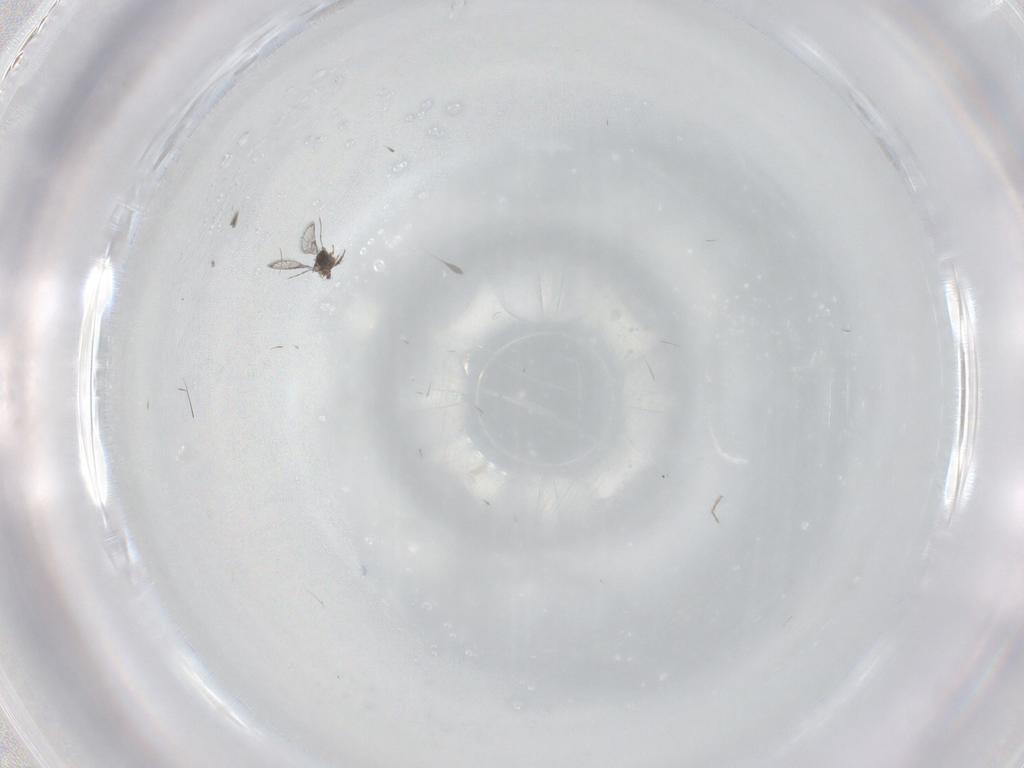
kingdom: Animalia
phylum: Arthropoda
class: Insecta
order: Diptera
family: Cecidomyiidae
